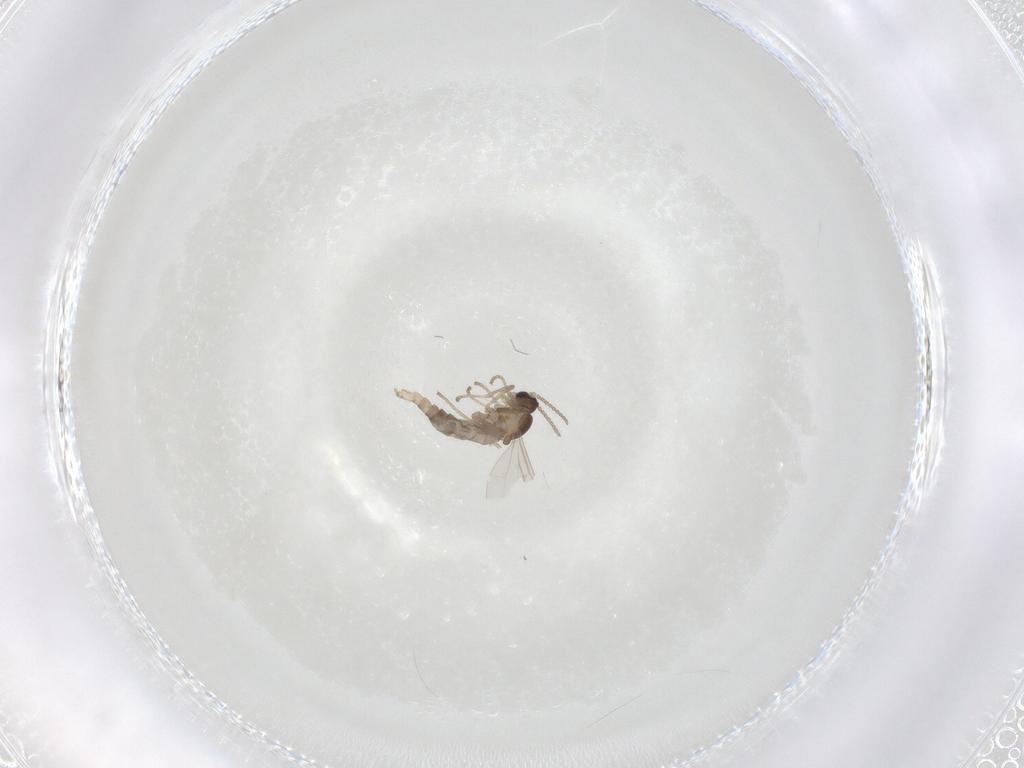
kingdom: Animalia
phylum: Arthropoda
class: Insecta
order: Diptera
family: Cecidomyiidae
